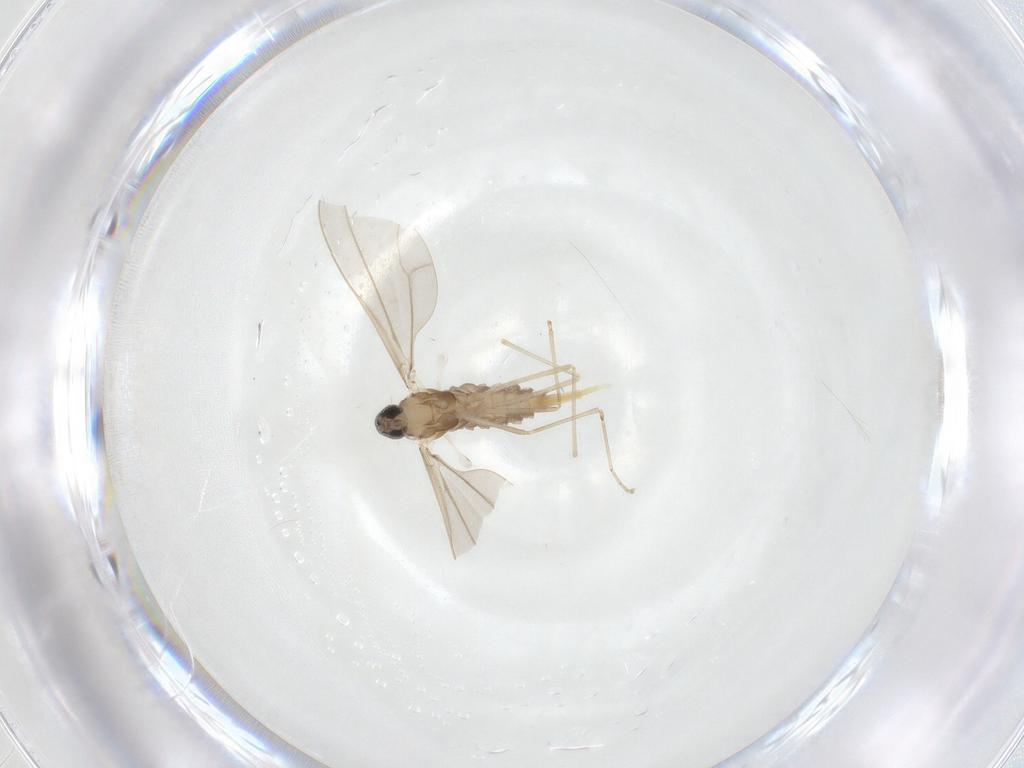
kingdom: Animalia
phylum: Arthropoda
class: Insecta
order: Diptera
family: Cecidomyiidae
